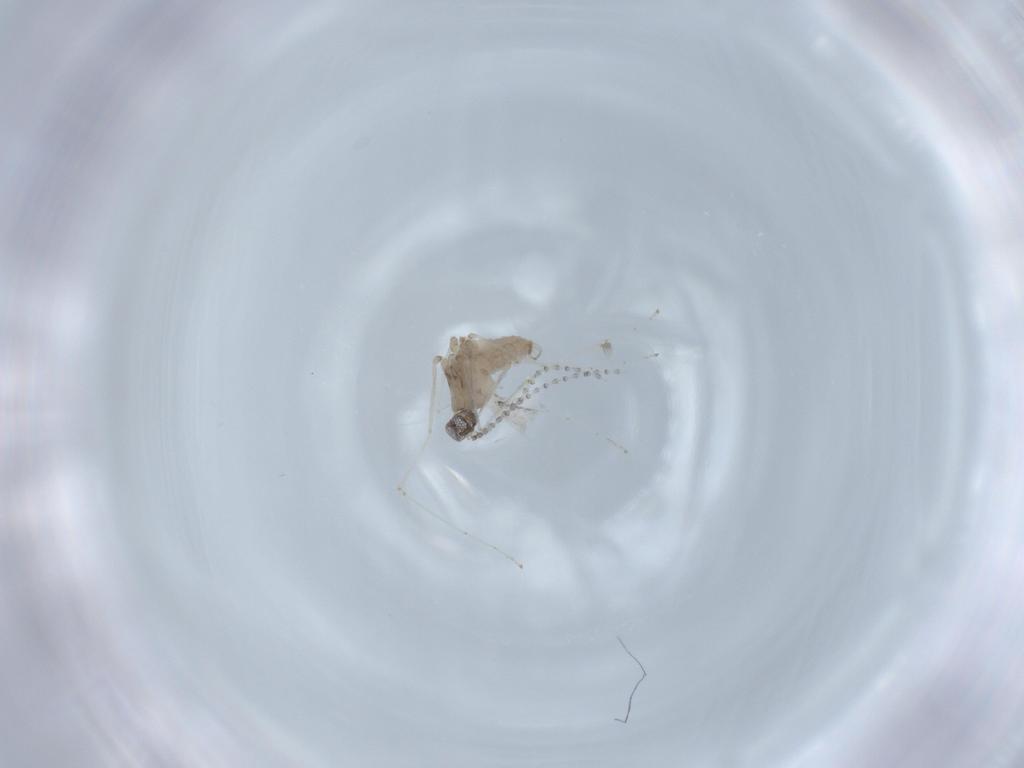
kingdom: Animalia
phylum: Arthropoda
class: Insecta
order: Diptera
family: Cecidomyiidae
